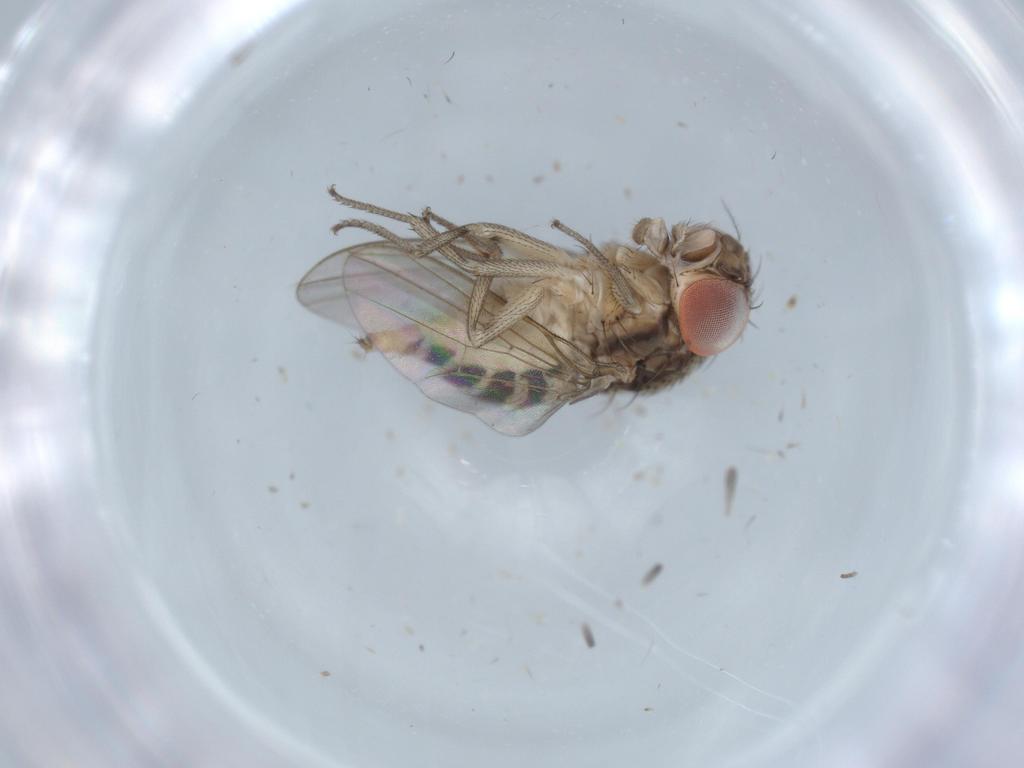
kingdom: Animalia
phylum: Arthropoda
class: Insecta
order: Diptera
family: Drosophilidae
